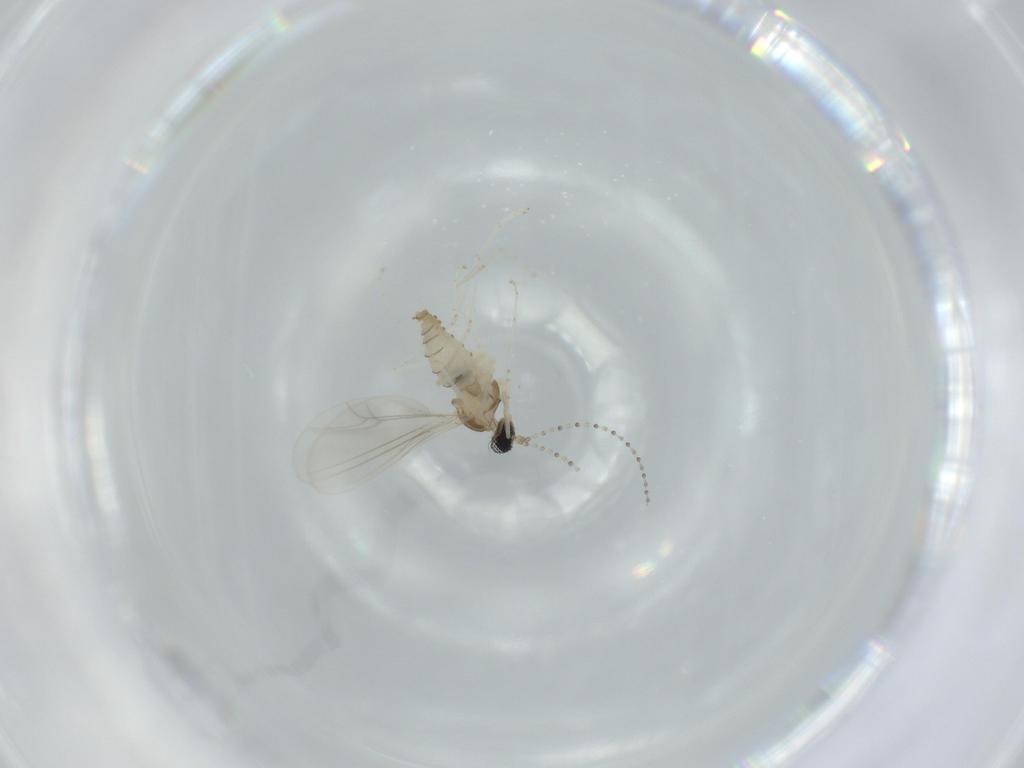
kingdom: Animalia
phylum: Arthropoda
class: Insecta
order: Diptera
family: Cecidomyiidae
